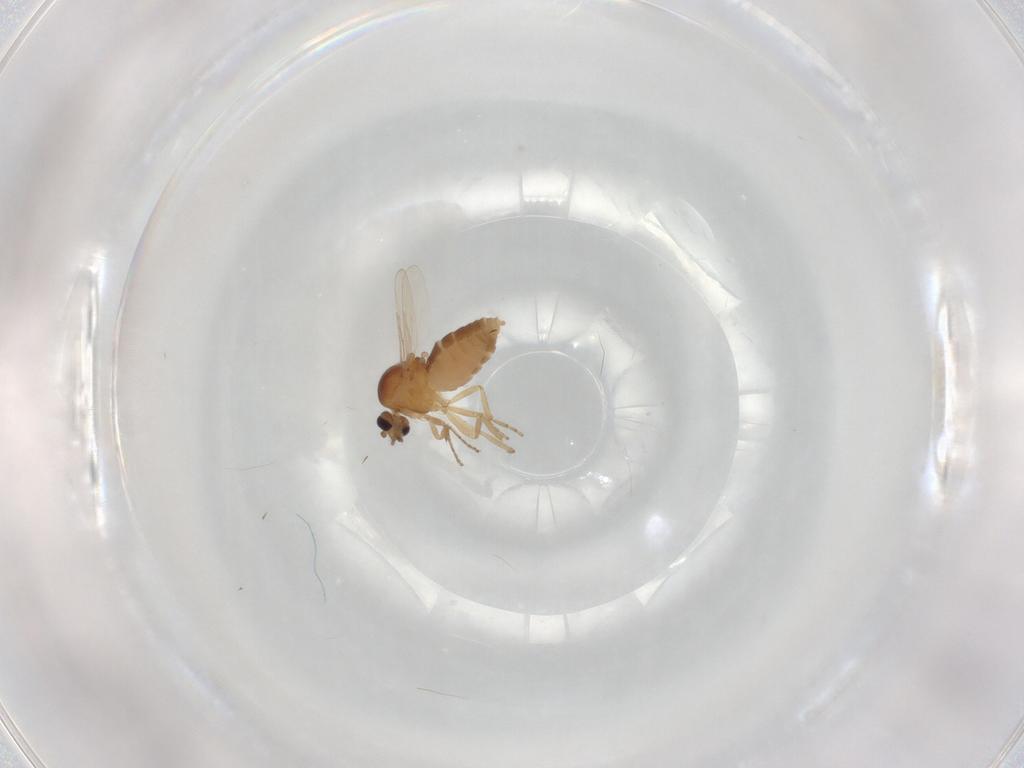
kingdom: Animalia
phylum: Arthropoda
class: Insecta
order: Diptera
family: Ceratopogonidae
